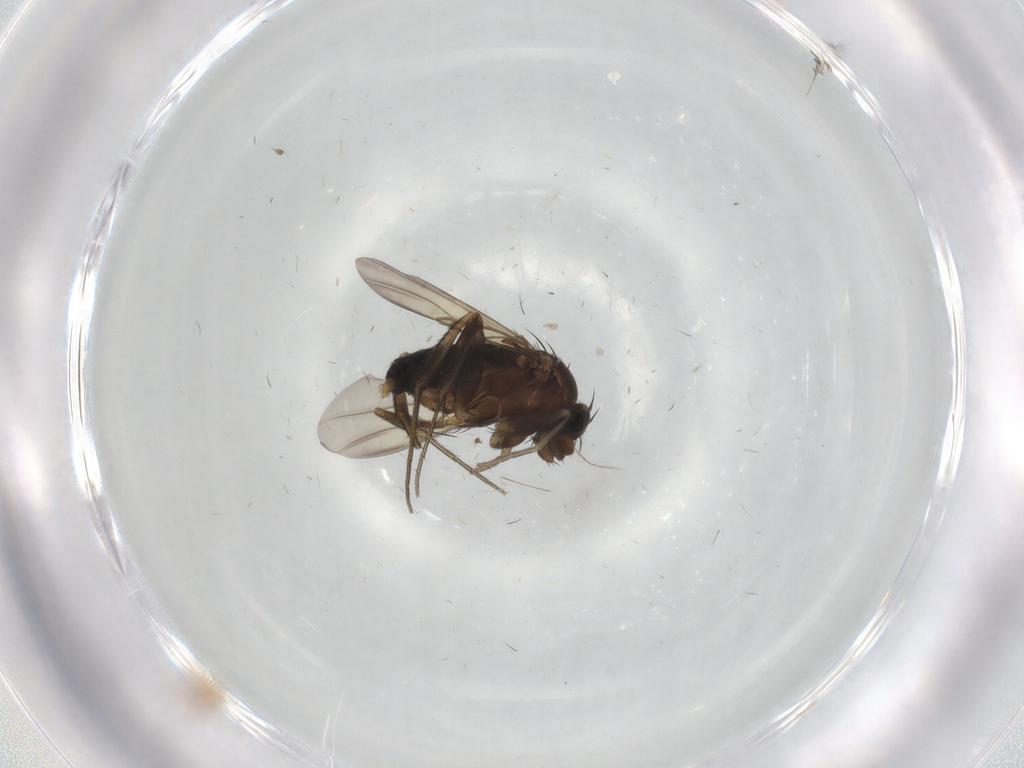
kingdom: Animalia
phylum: Arthropoda
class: Insecta
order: Diptera
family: Phoridae
